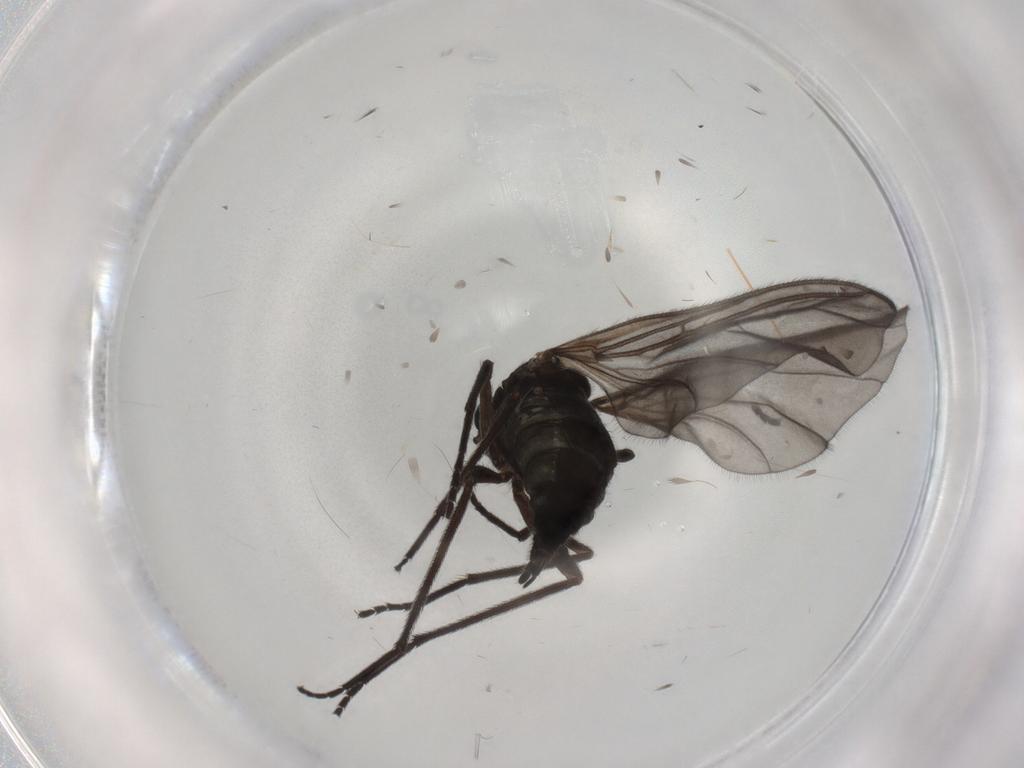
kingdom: Animalia
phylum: Arthropoda
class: Insecta
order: Diptera
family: Sciaridae
